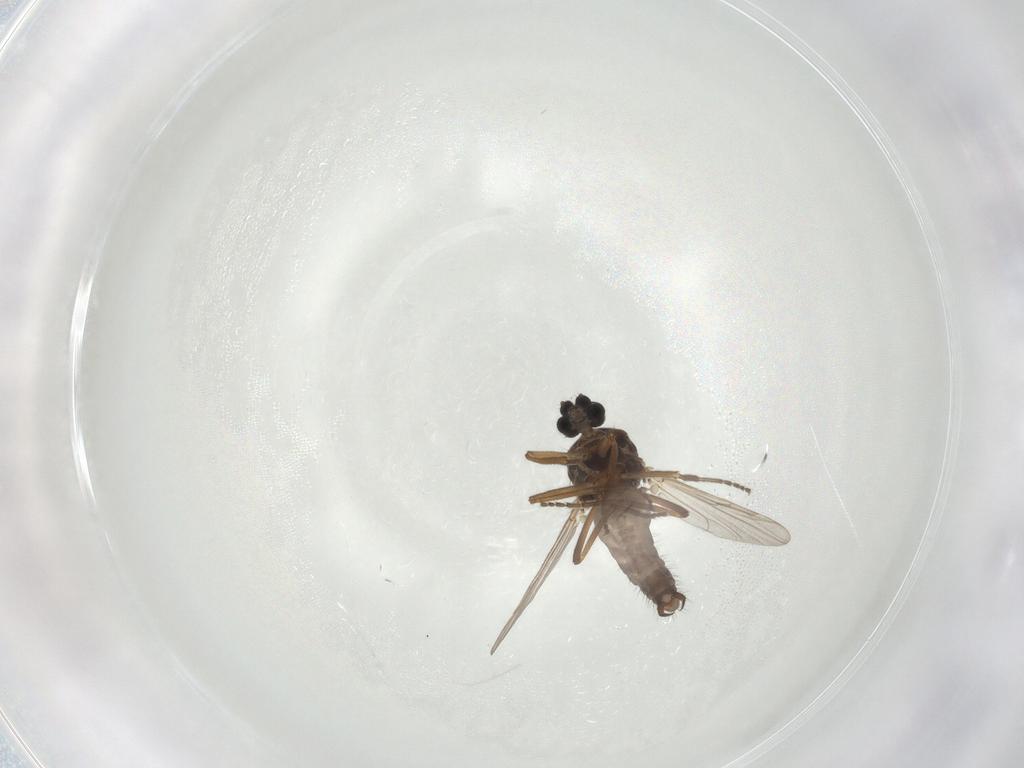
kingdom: Animalia
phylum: Arthropoda
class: Insecta
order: Diptera
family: Ceratopogonidae
